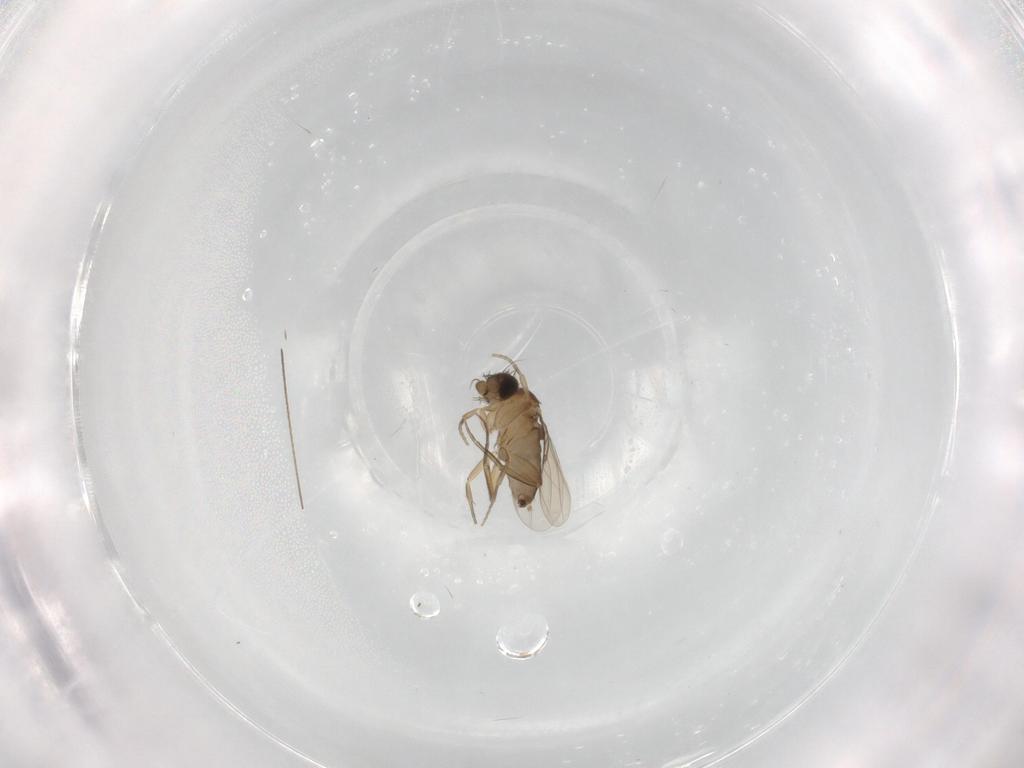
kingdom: Animalia
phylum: Arthropoda
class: Insecta
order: Diptera
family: Phoridae
